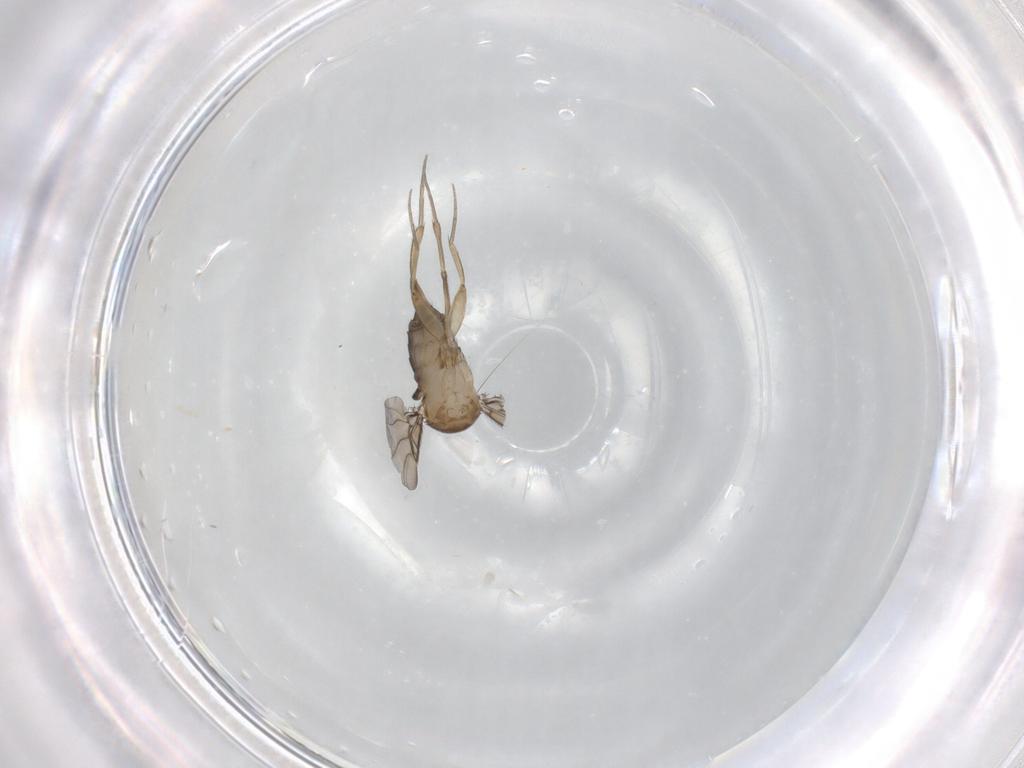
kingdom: Animalia
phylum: Arthropoda
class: Insecta
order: Diptera
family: Phoridae
